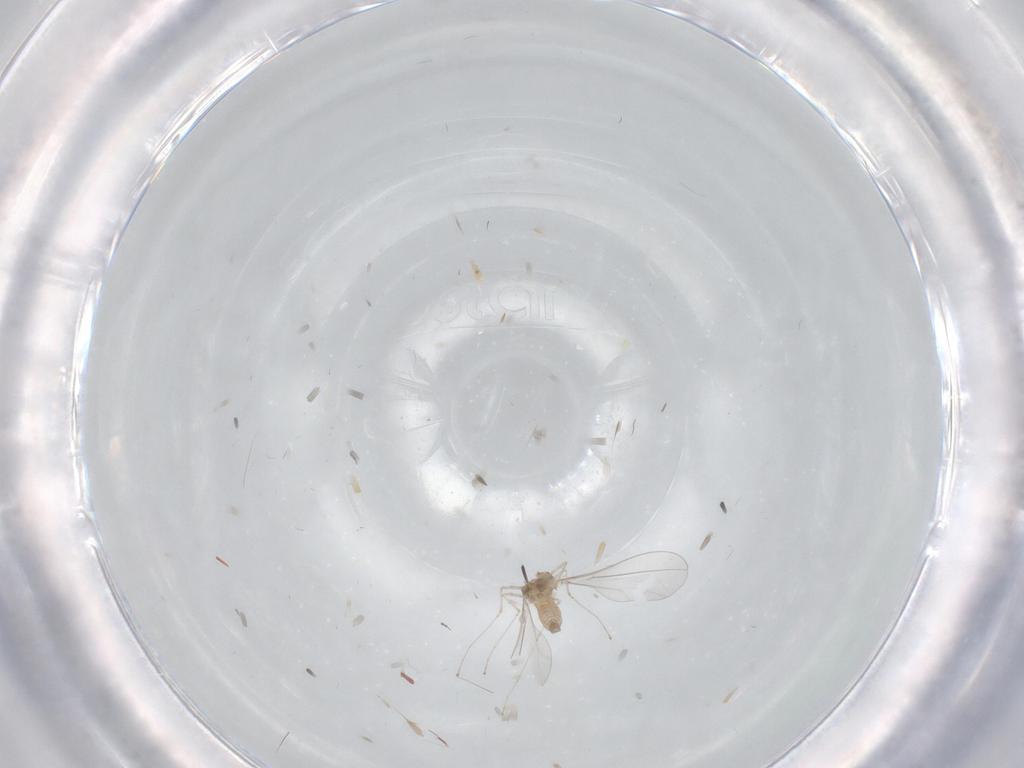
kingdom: Animalia
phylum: Arthropoda
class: Insecta
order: Diptera
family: Cecidomyiidae
